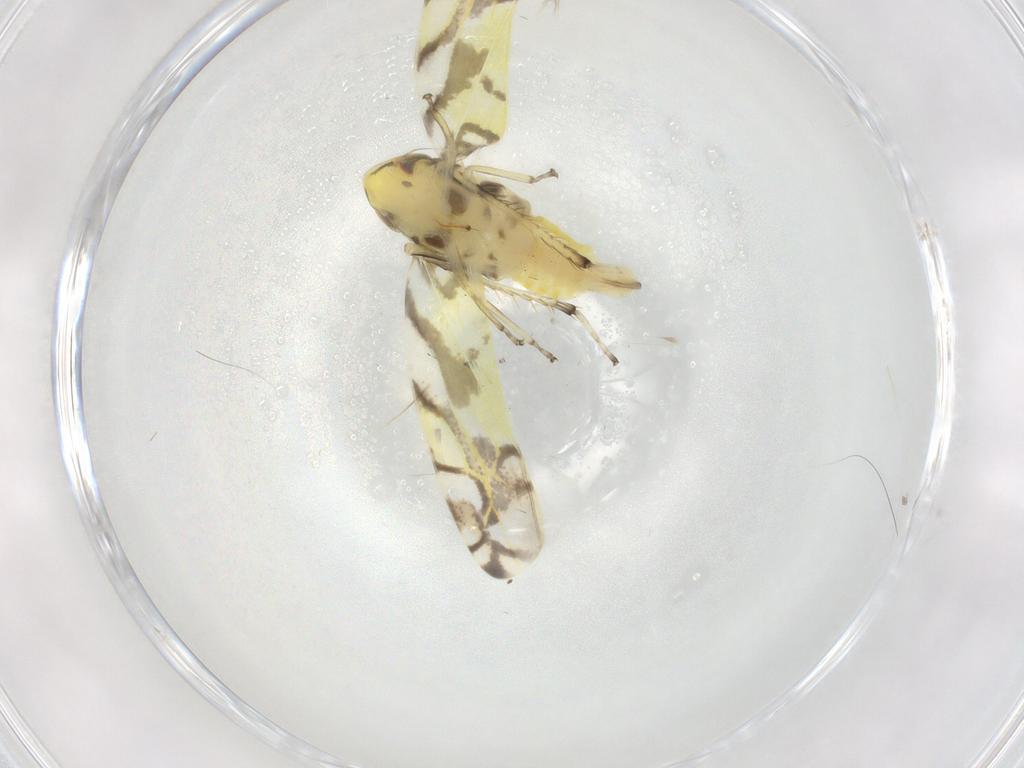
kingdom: Animalia
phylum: Arthropoda
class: Insecta
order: Hemiptera
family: Cicadellidae
